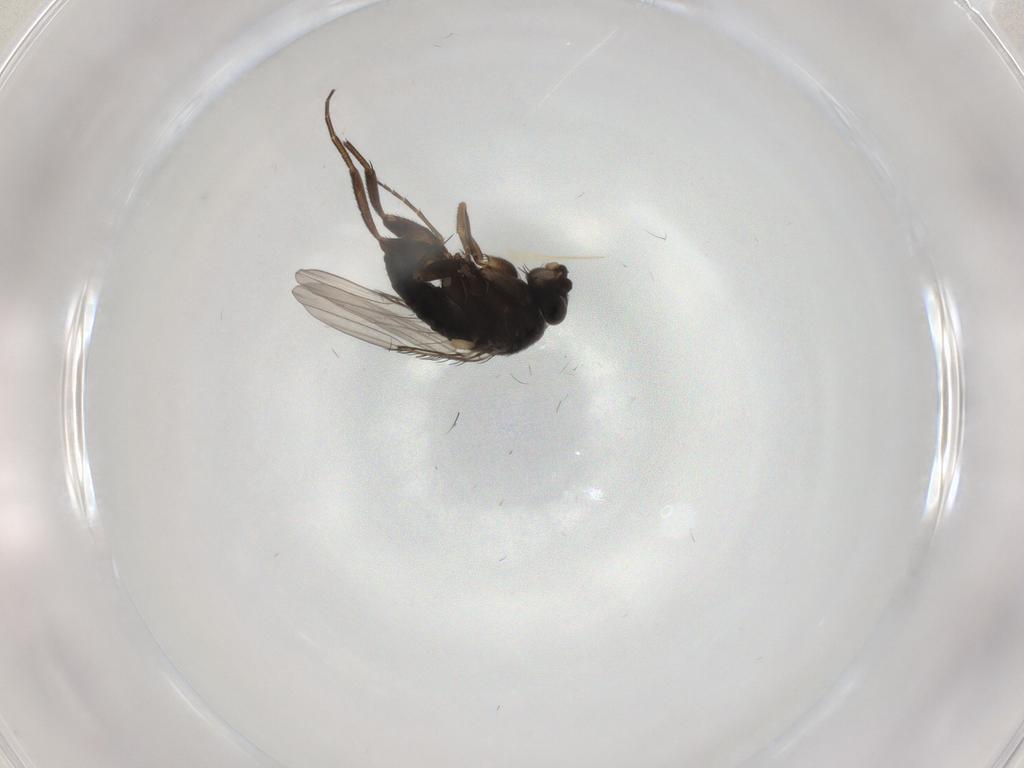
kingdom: Animalia
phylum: Arthropoda
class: Insecta
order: Diptera
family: Phoridae
